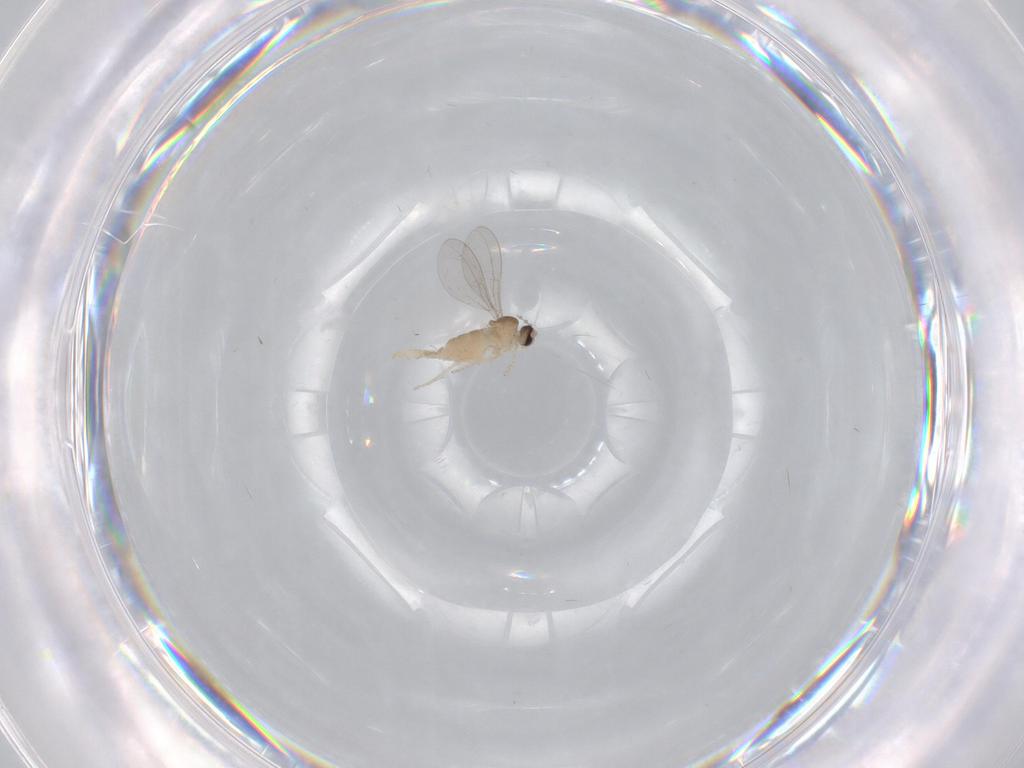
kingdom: Animalia
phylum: Arthropoda
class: Insecta
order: Diptera
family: Cecidomyiidae
